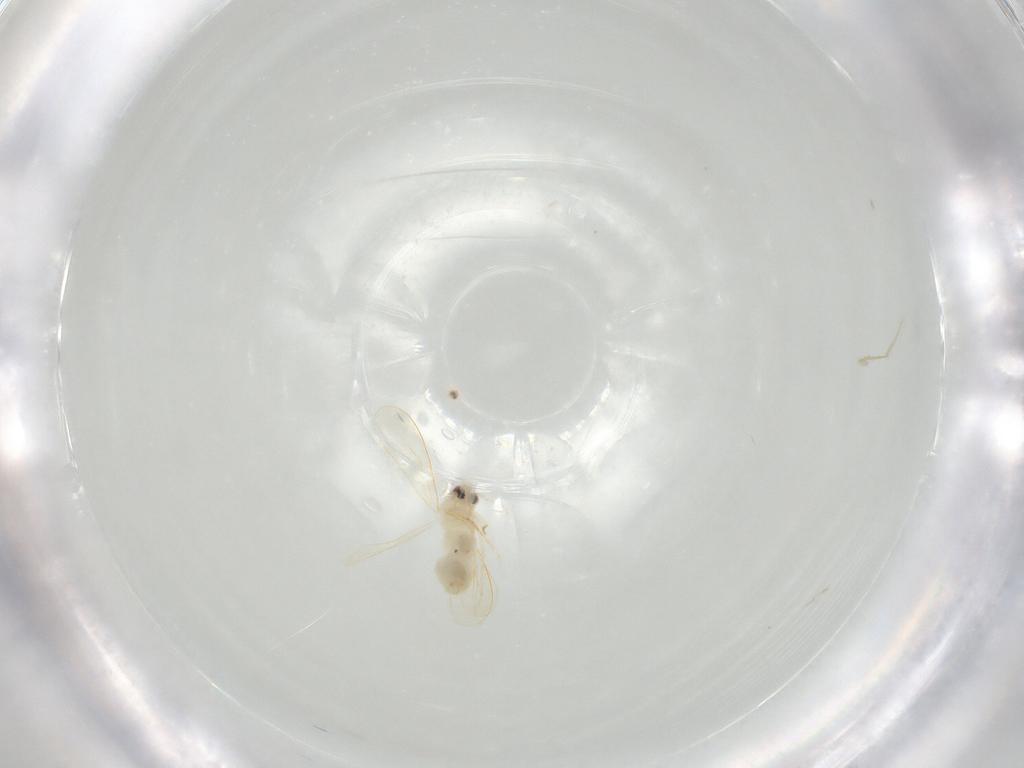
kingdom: Animalia
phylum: Arthropoda
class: Insecta
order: Hemiptera
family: Aleyrodidae
